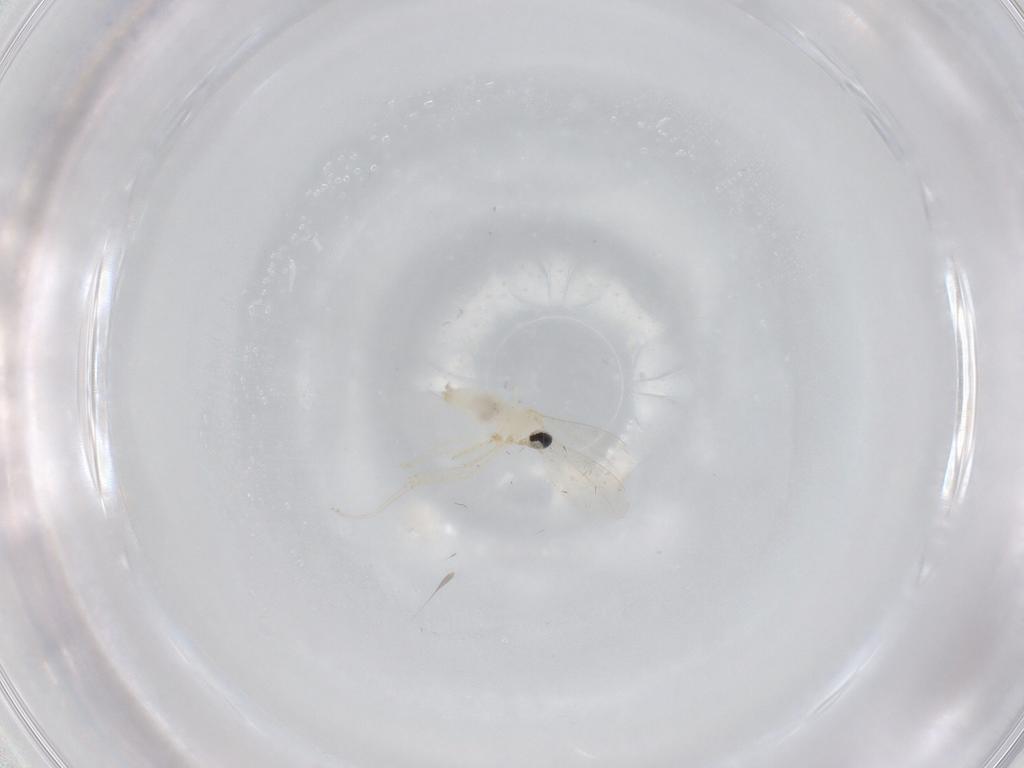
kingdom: Animalia
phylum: Arthropoda
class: Insecta
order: Diptera
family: Cecidomyiidae
